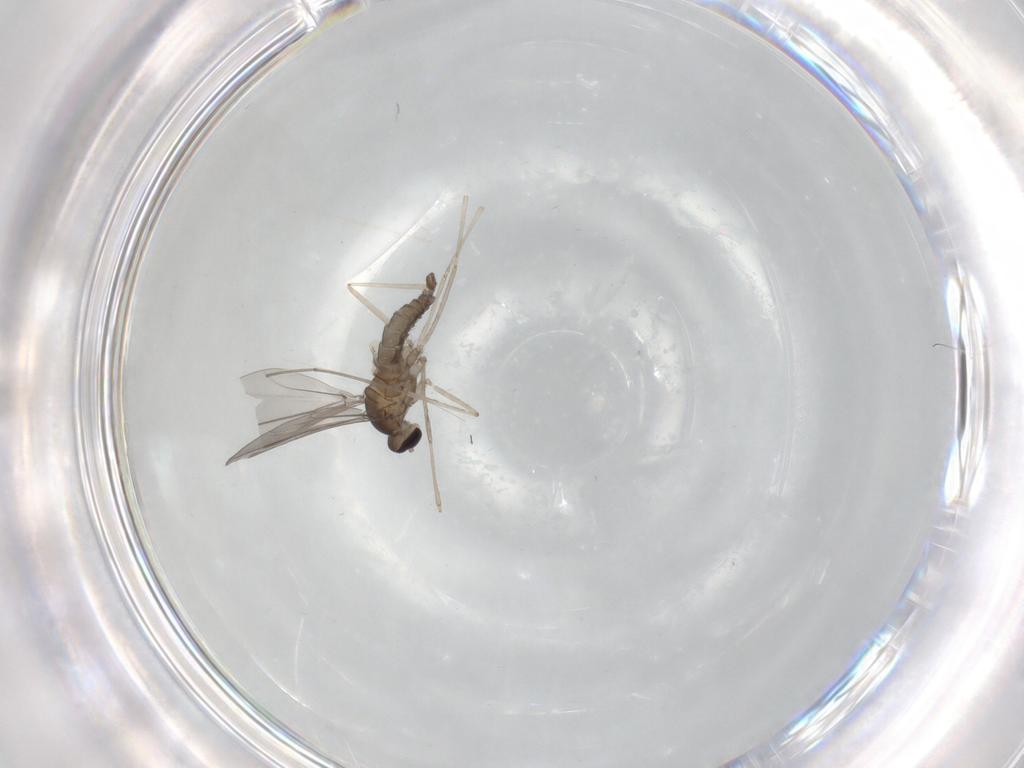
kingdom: Animalia
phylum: Arthropoda
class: Insecta
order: Diptera
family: Cecidomyiidae
